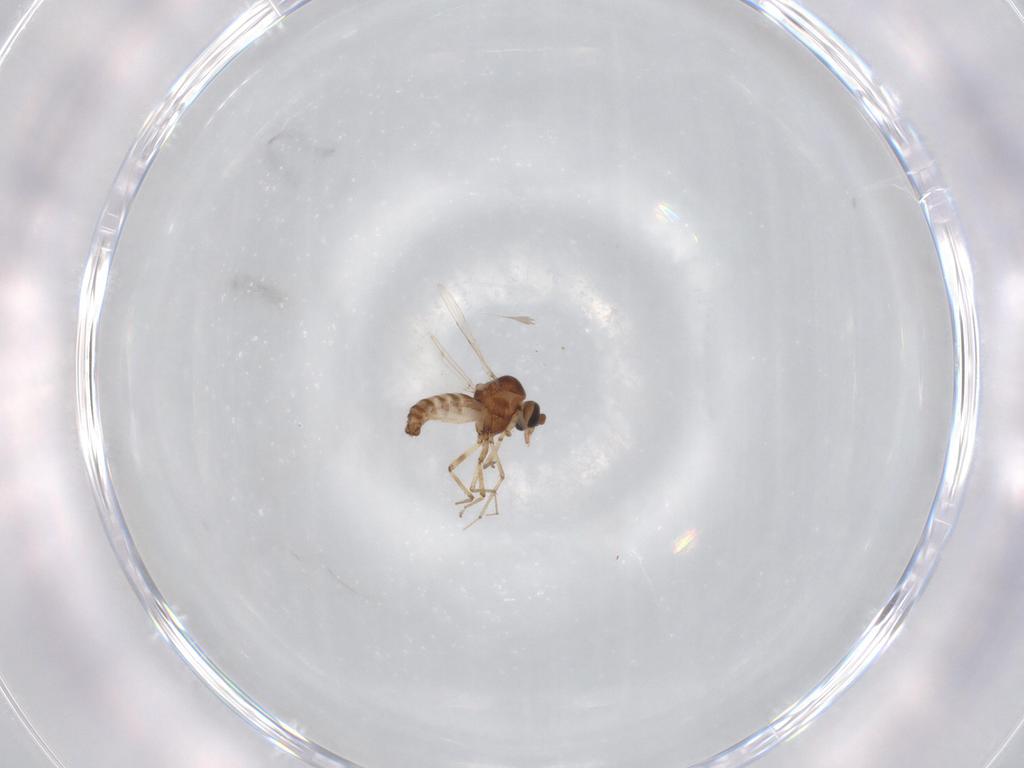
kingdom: Animalia
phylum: Arthropoda
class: Insecta
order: Diptera
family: Ceratopogonidae
